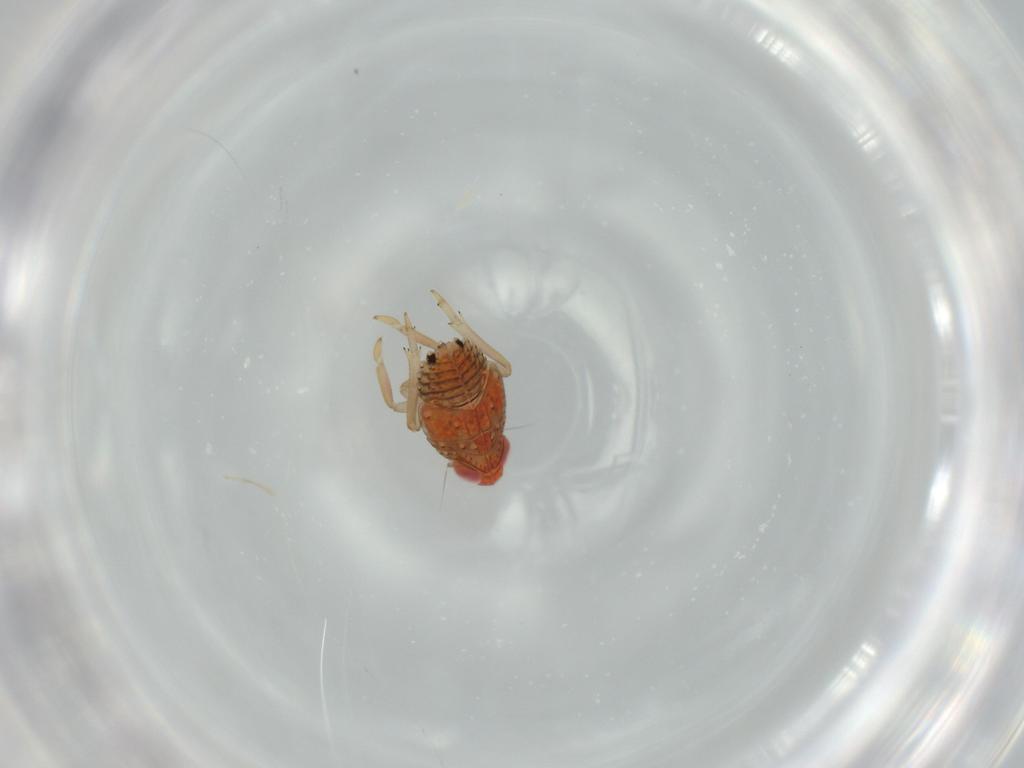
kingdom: Animalia
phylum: Arthropoda
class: Insecta
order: Hemiptera
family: Fulgoroidea_incertae_sedis
